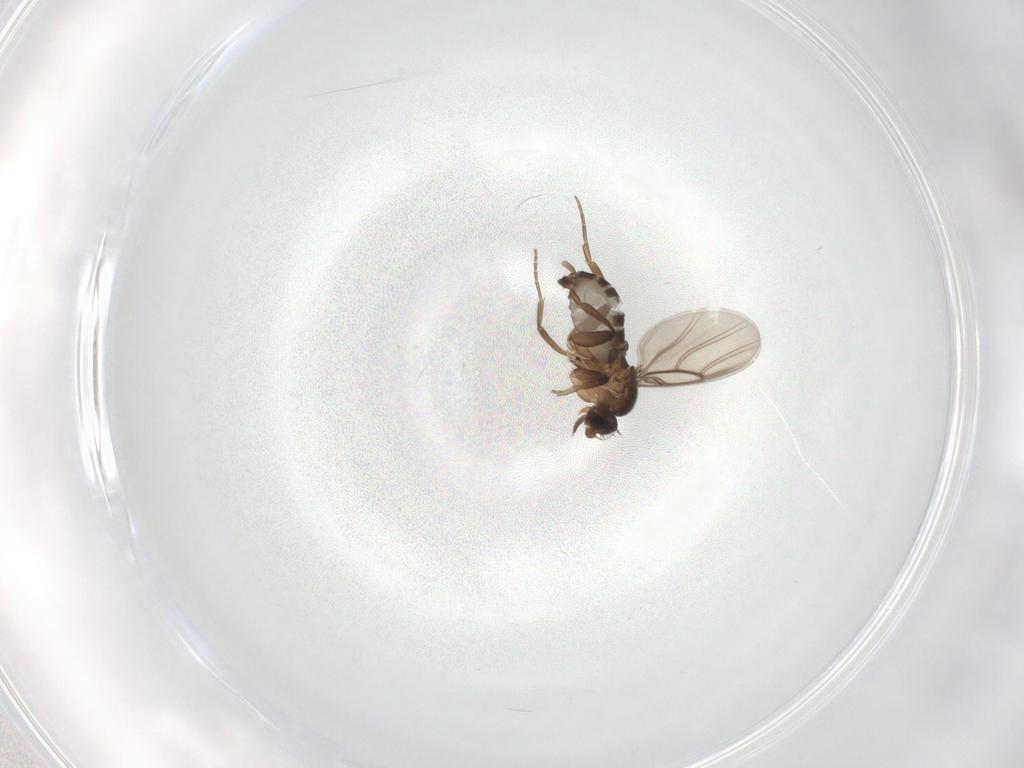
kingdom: Animalia
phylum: Arthropoda
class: Insecta
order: Diptera
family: Phoridae
